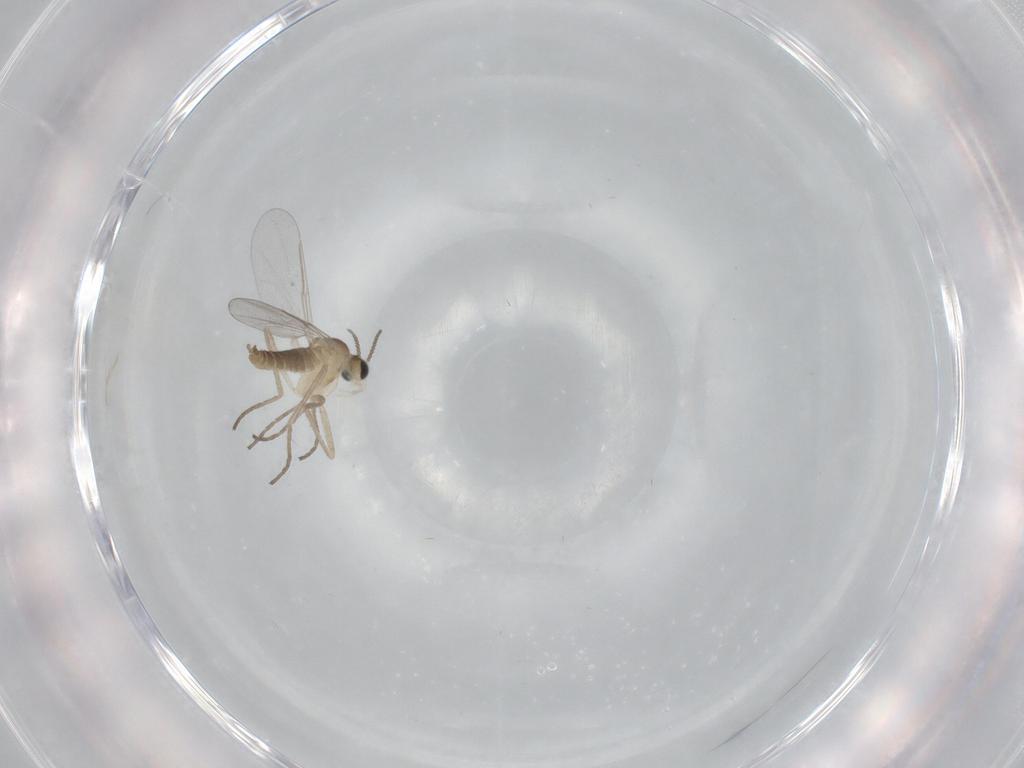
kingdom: Animalia
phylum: Arthropoda
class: Insecta
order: Diptera
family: Cecidomyiidae
